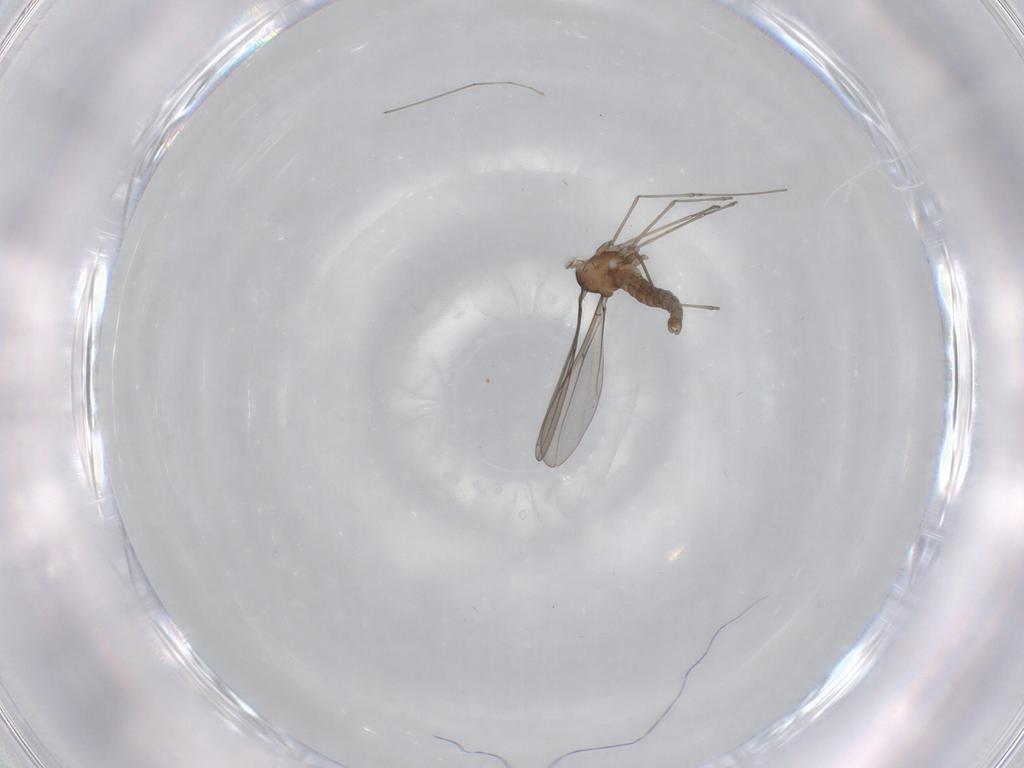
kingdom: Animalia
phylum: Arthropoda
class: Insecta
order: Diptera
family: Cecidomyiidae
